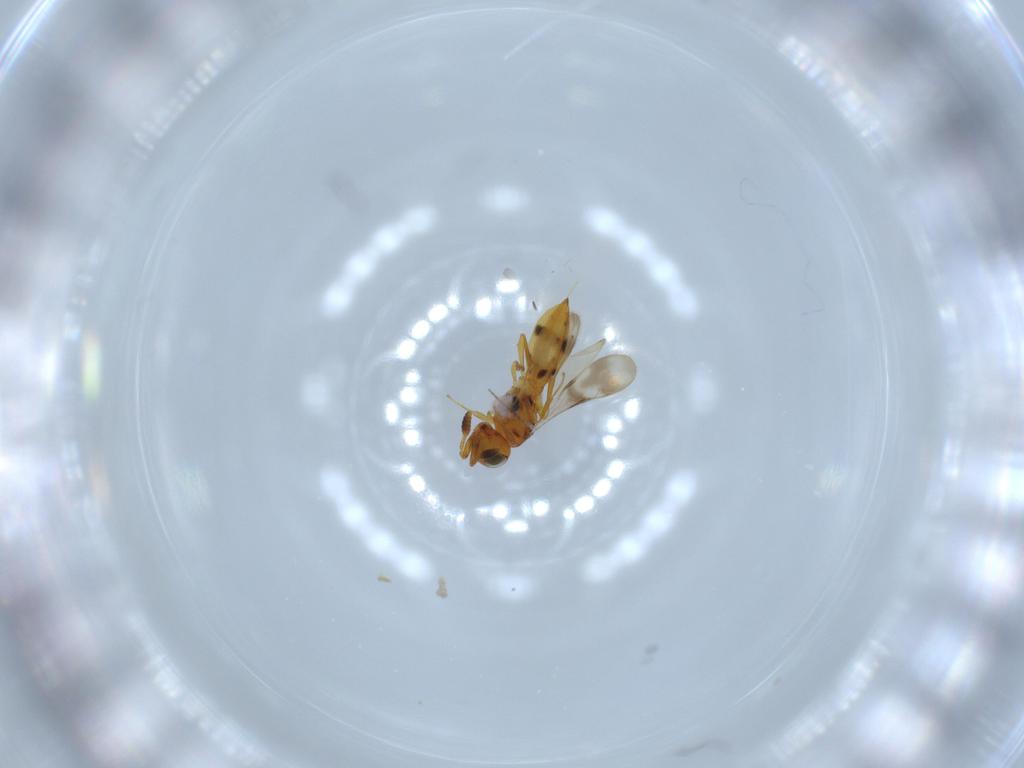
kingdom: Animalia
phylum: Arthropoda
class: Insecta
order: Hymenoptera
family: Scelionidae
